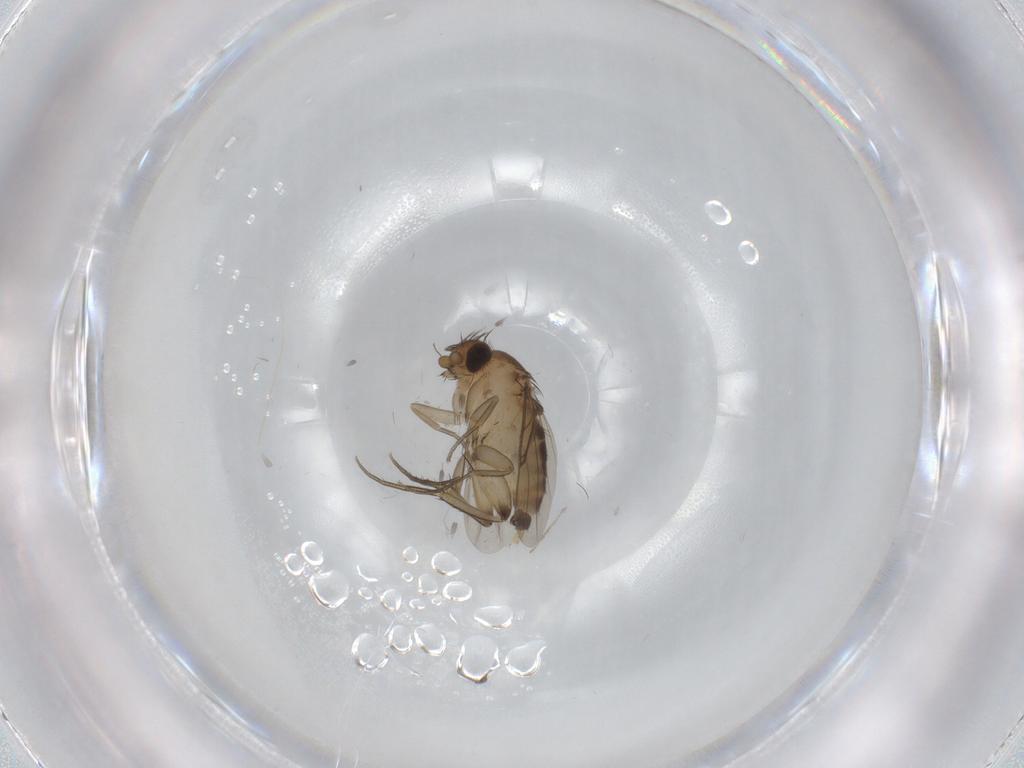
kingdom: Animalia
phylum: Arthropoda
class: Insecta
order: Diptera
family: Phoridae
